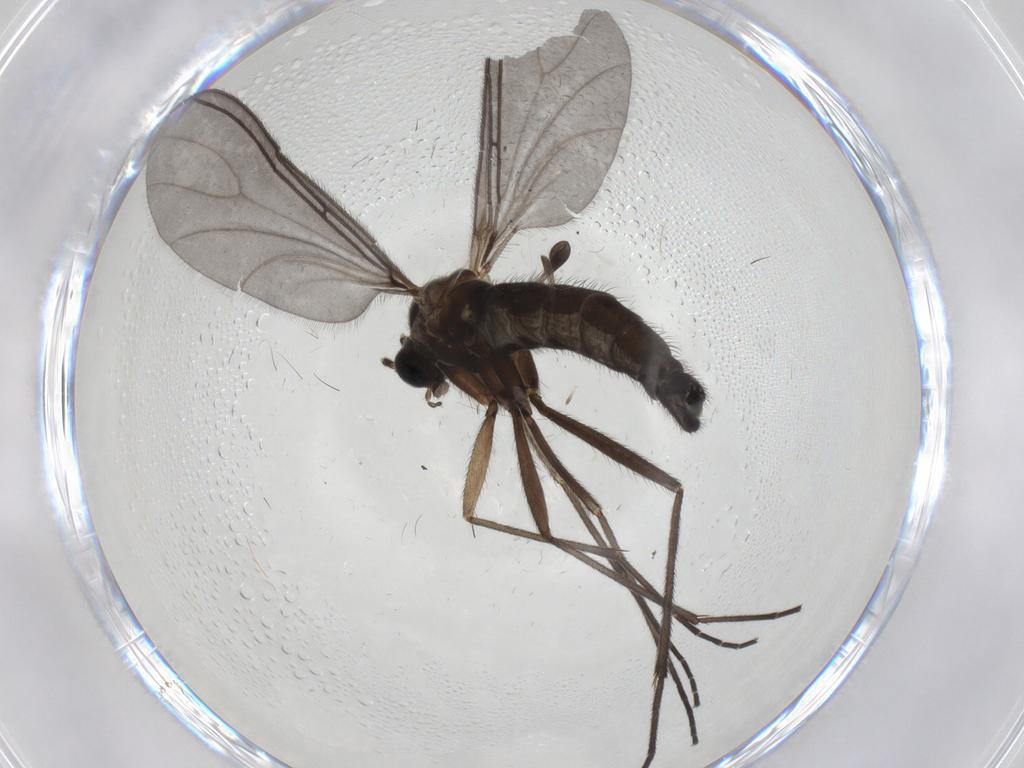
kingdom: Animalia
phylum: Arthropoda
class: Insecta
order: Diptera
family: Sciaridae
